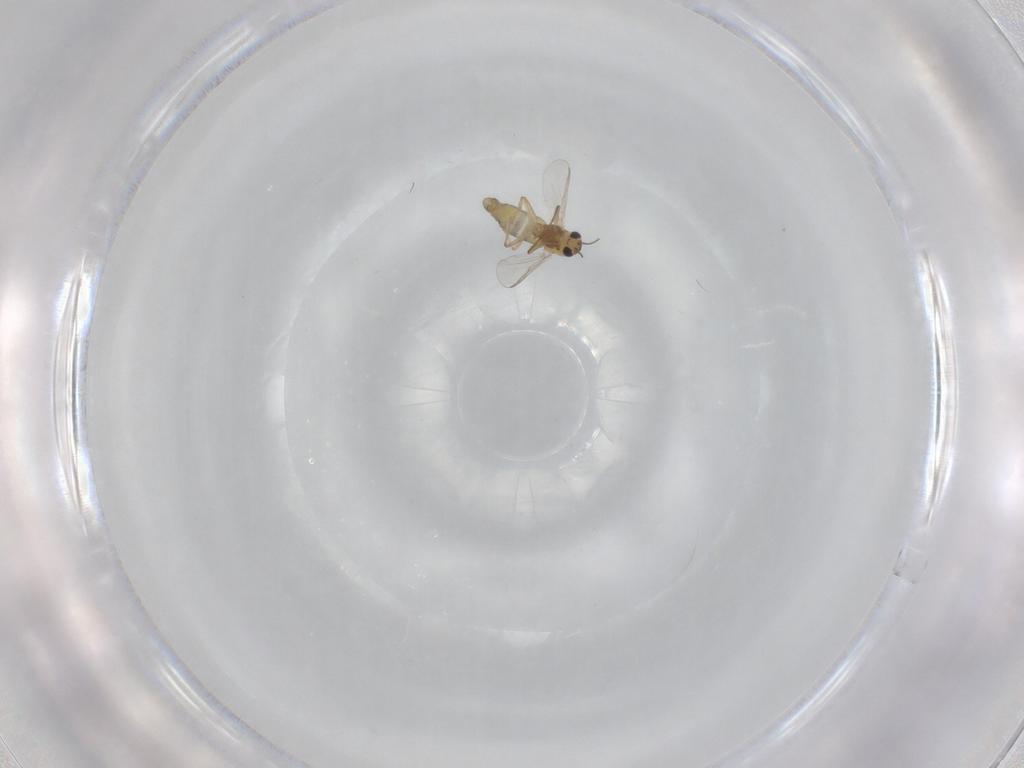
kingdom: Animalia
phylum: Arthropoda
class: Insecta
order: Diptera
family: Chironomidae
